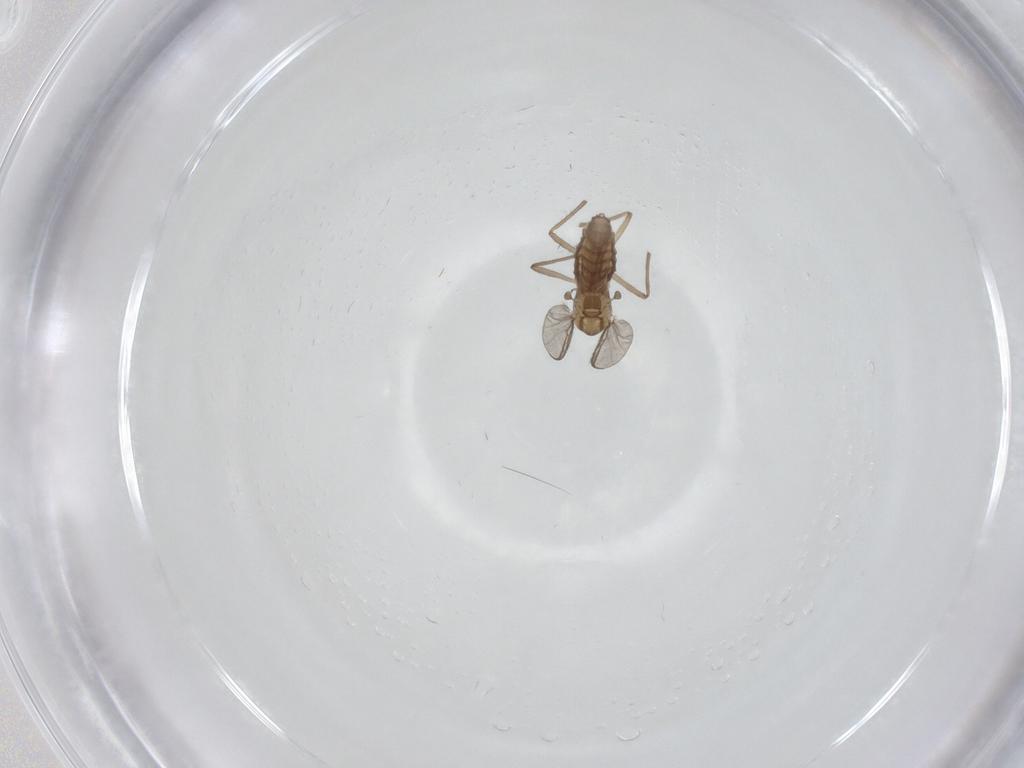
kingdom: Animalia
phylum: Arthropoda
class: Insecta
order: Diptera
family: Chironomidae
